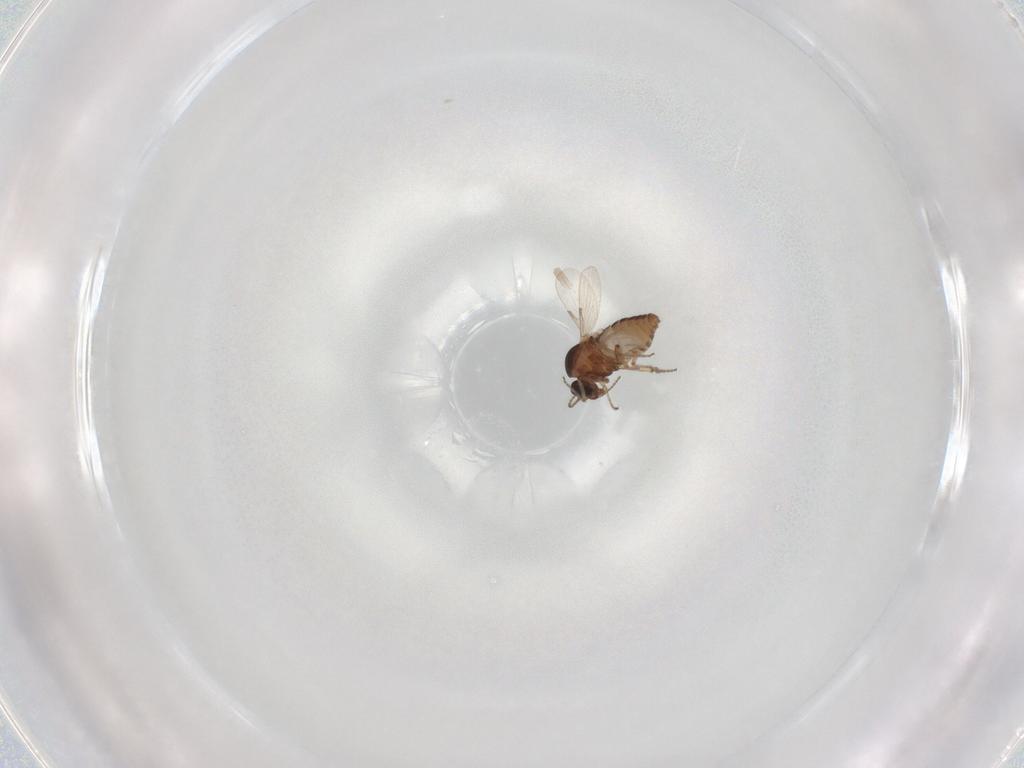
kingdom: Animalia
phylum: Arthropoda
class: Insecta
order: Diptera
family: Ceratopogonidae
